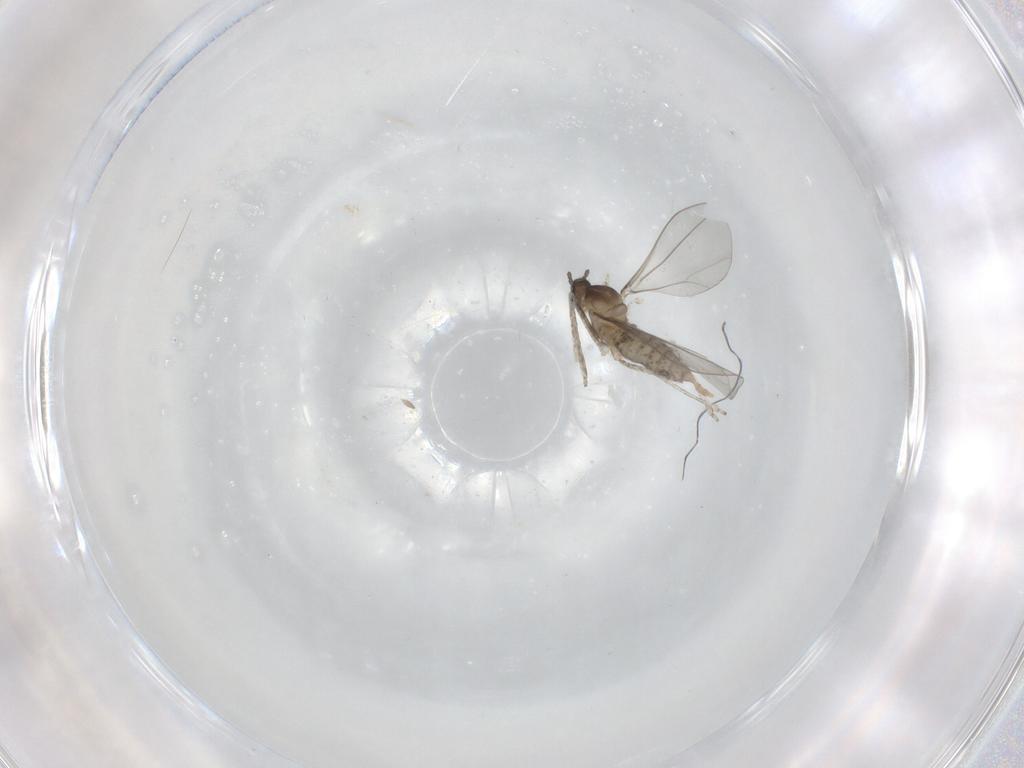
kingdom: Animalia
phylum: Arthropoda
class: Insecta
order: Diptera
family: Cecidomyiidae
